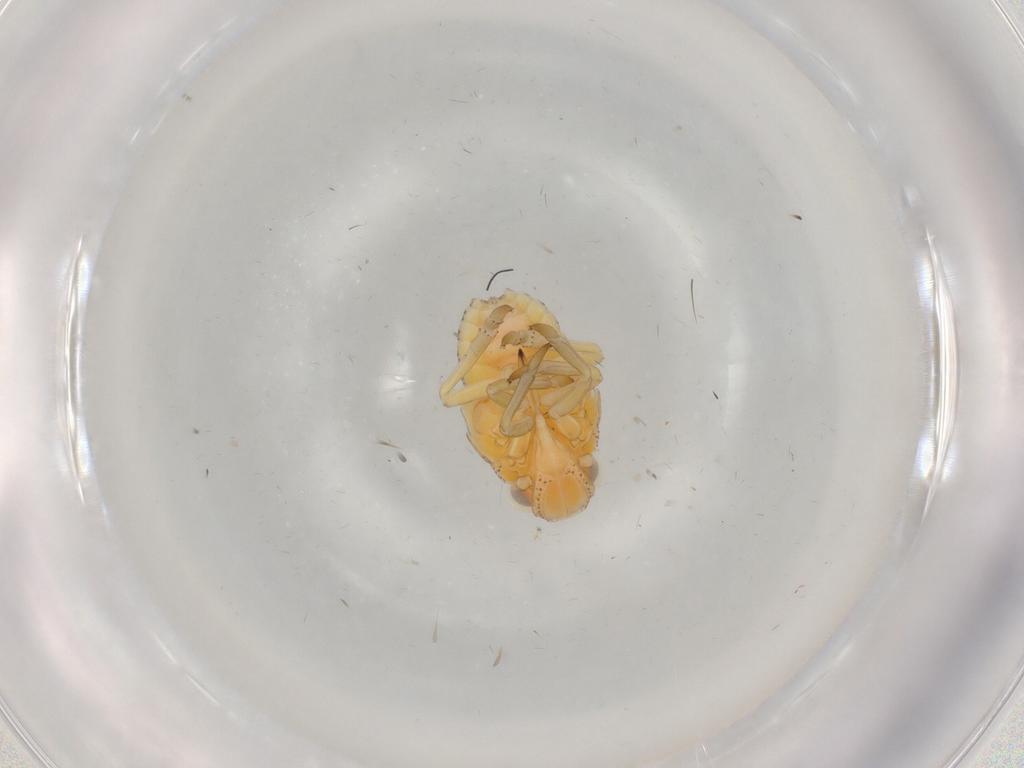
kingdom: Animalia
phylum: Arthropoda
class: Insecta
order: Hemiptera
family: Tropiduchidae
